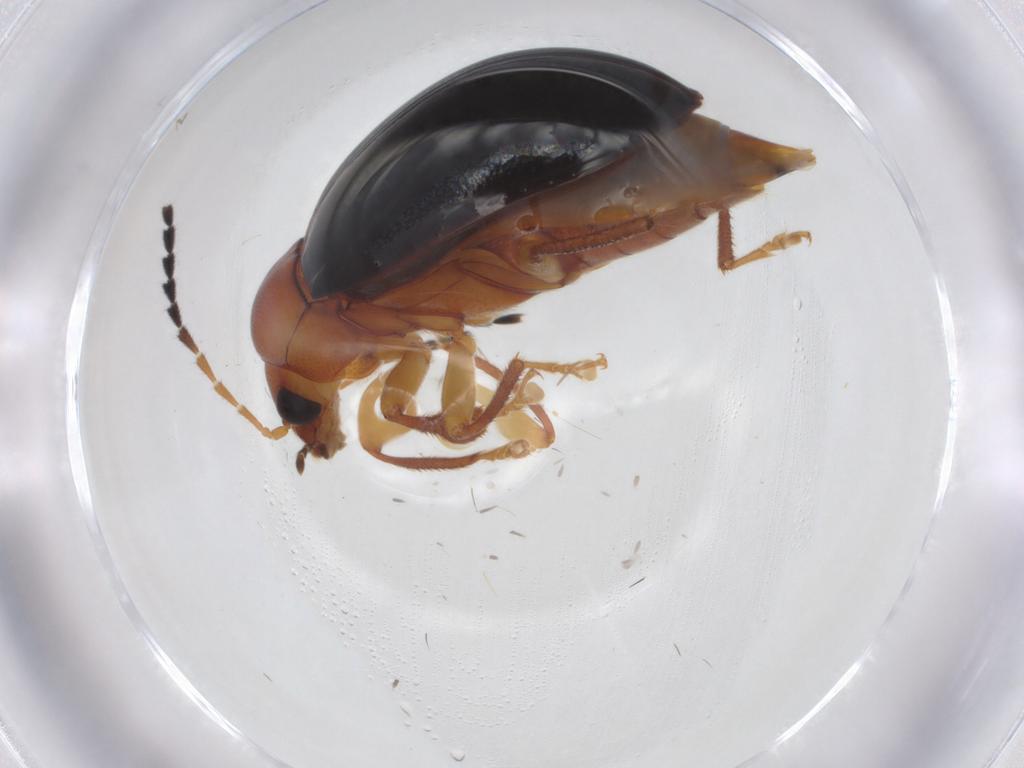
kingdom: Animalia
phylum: Arthropoda
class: Insecta
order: Coleoptera
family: Ptilodactylidae
